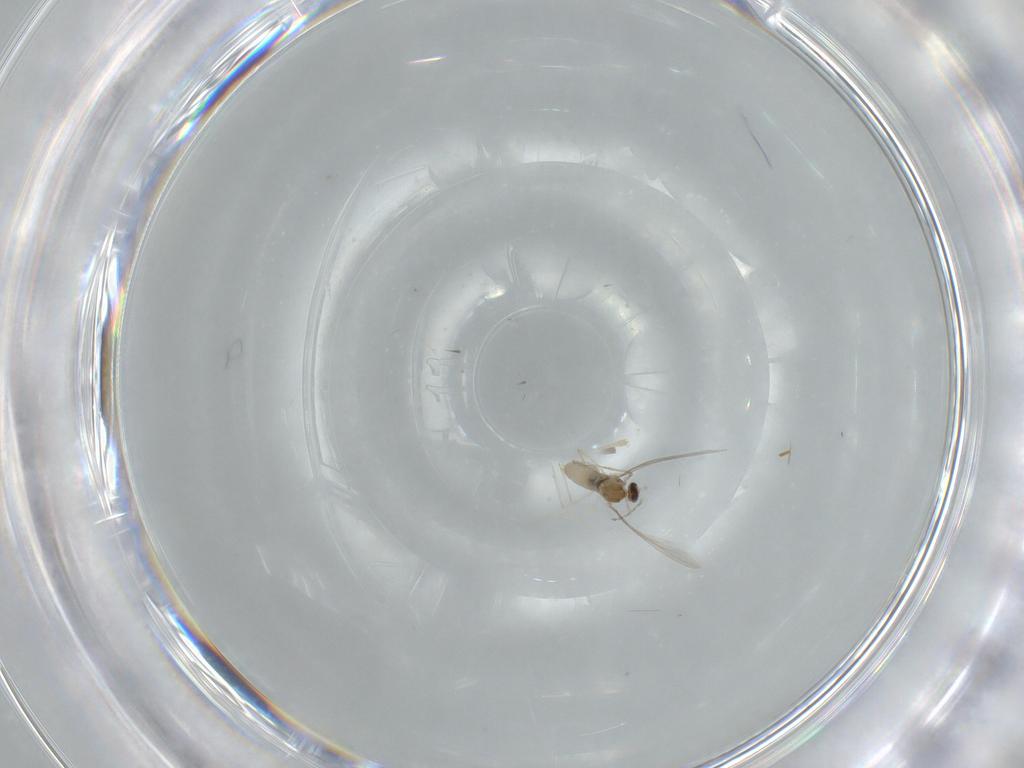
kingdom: Animalia
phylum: Arthropoda
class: Insecta
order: Diptera
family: Cecidomyiidae
